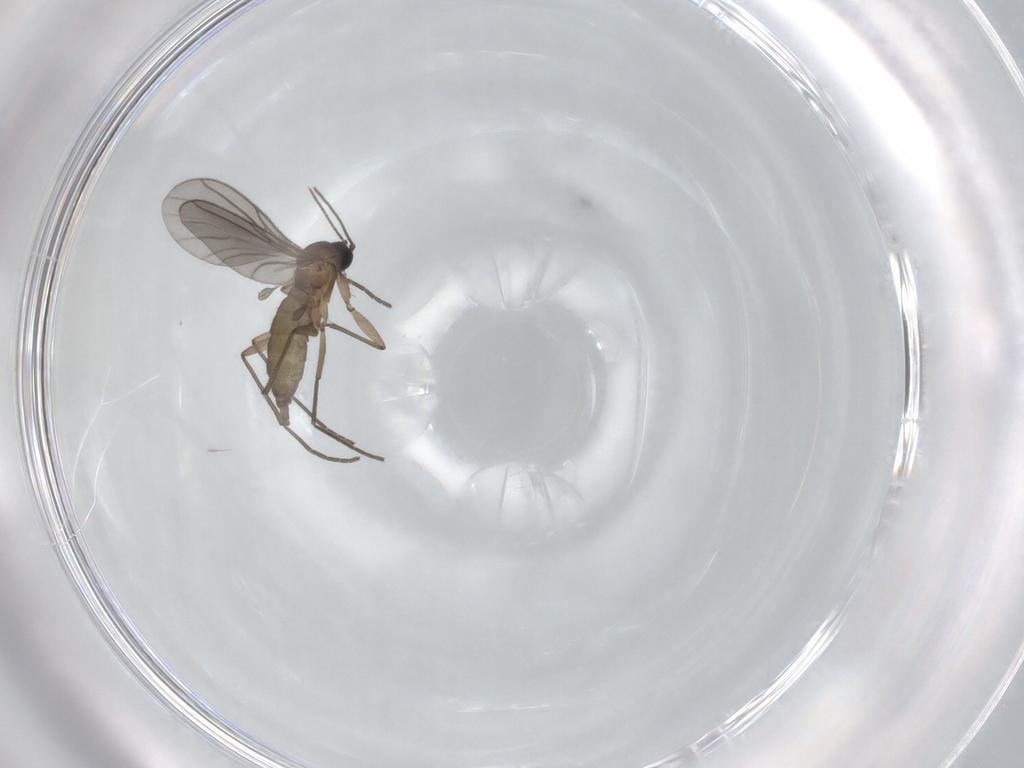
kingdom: Animalia
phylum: Arthropoda
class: Insecta
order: Diptera
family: Sciaridae
